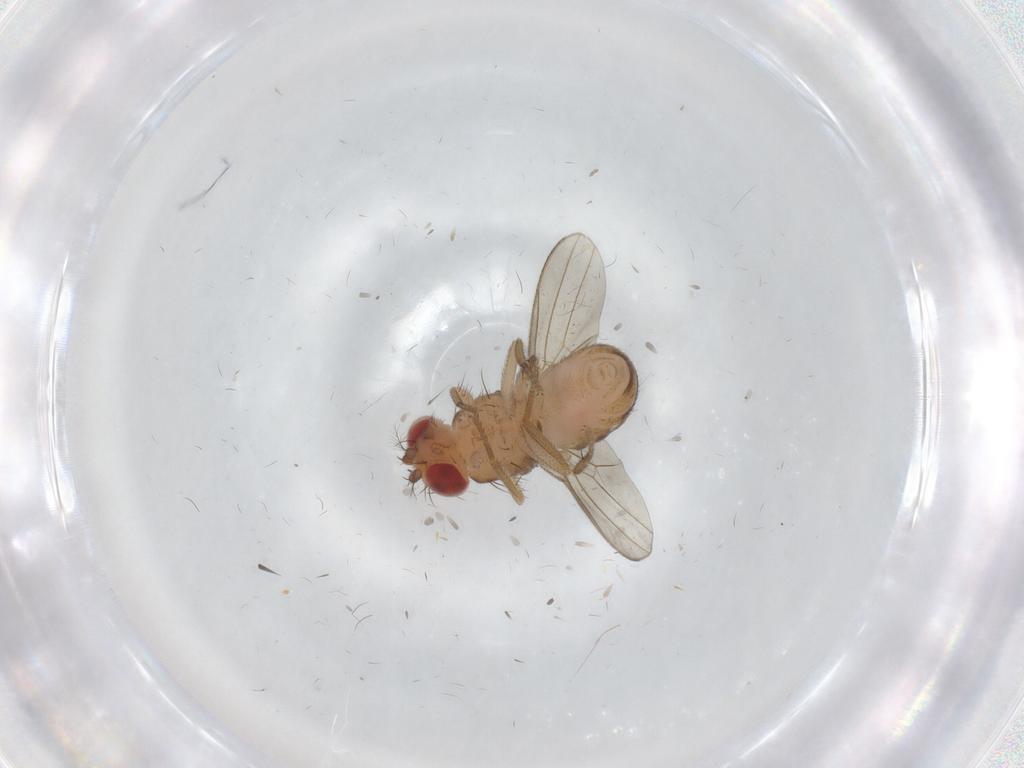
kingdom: Animalia
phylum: Arthropoda
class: Insecta
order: Diptera
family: Drosophilidae
